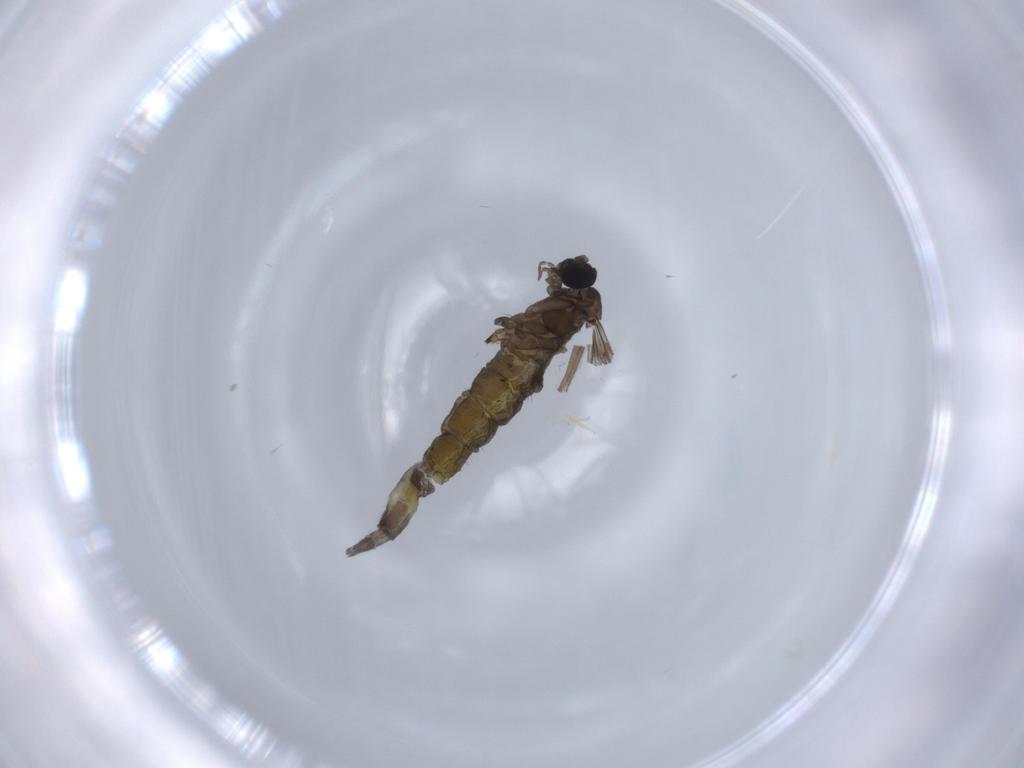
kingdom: Animalia
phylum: Arthropoda
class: Insecta
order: Diptera
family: Sciaridae
